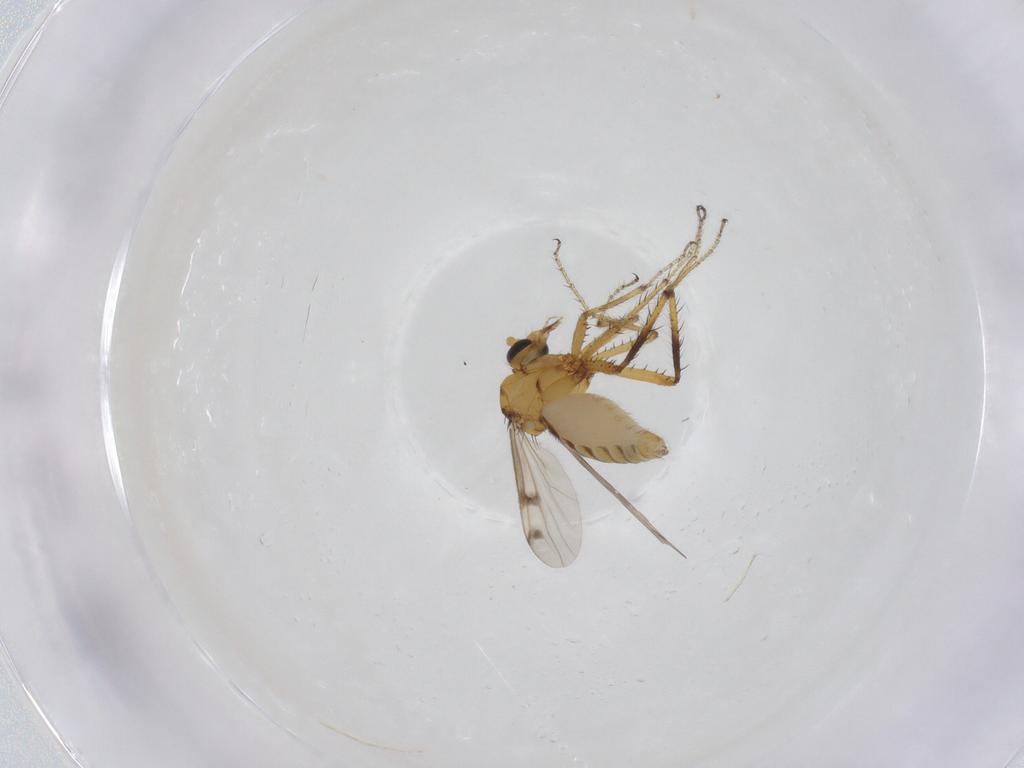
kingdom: Animalia
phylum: Arthropoda
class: Insecta
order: Diptera
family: Ceratopogonidae
